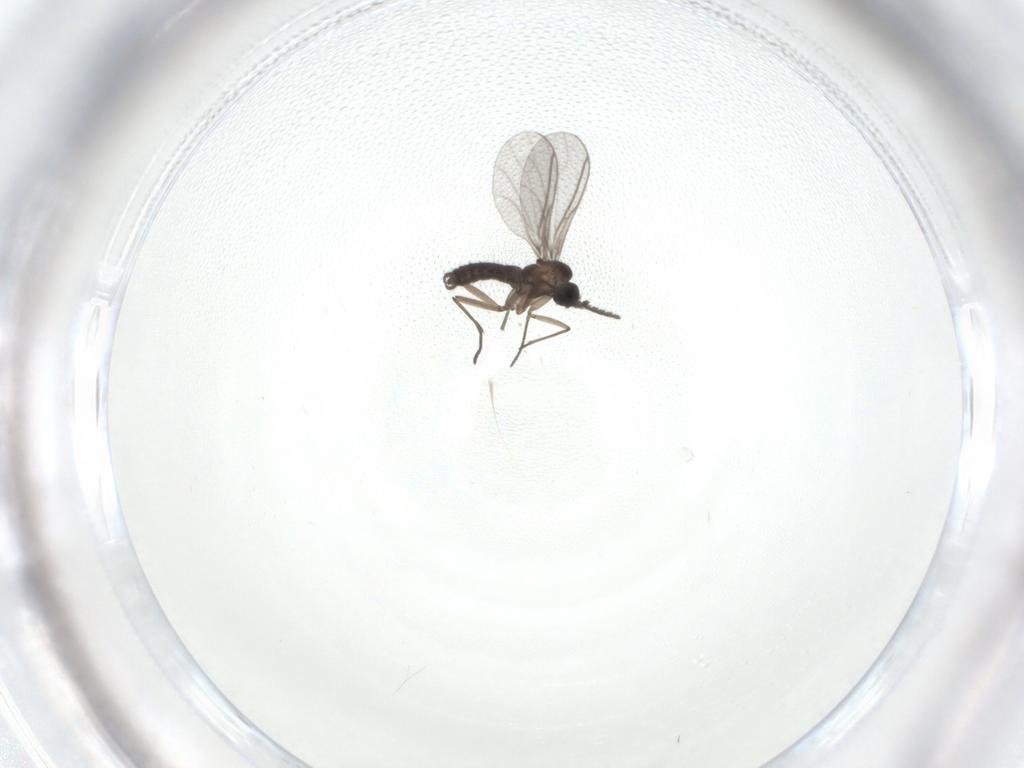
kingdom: Animalia
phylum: Arthropoda
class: Insecta
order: Diptera
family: Sciaridae
